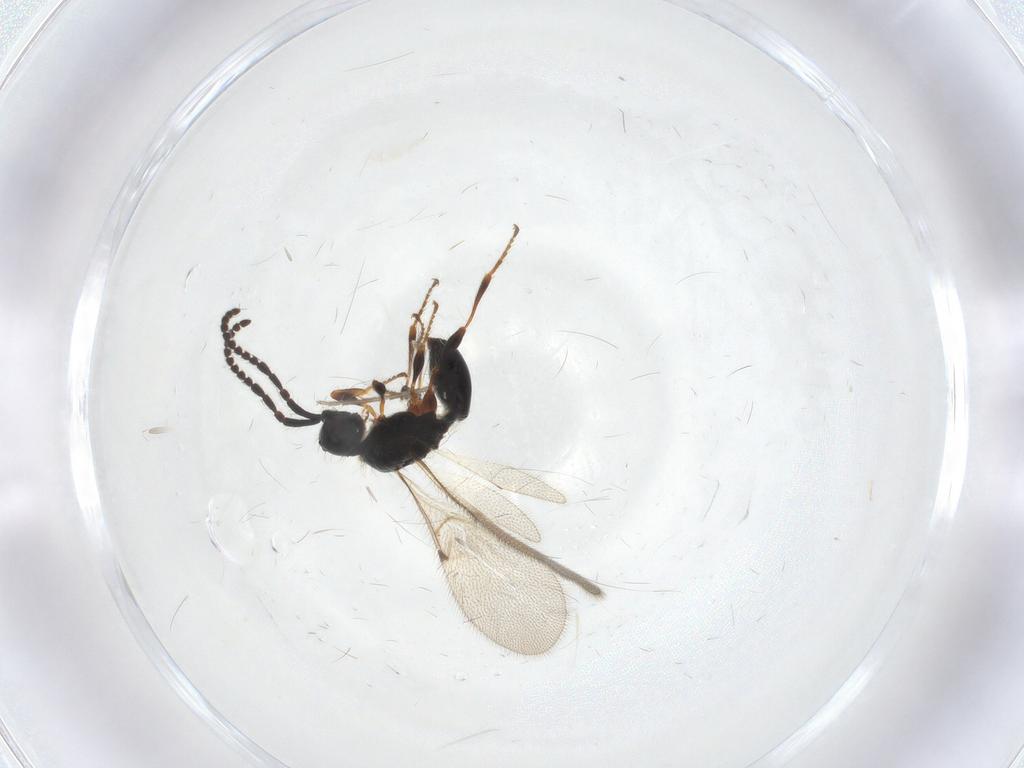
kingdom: Animalia
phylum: Arthropoda
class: Insecta
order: Hymenoptera
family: Diapriidae
